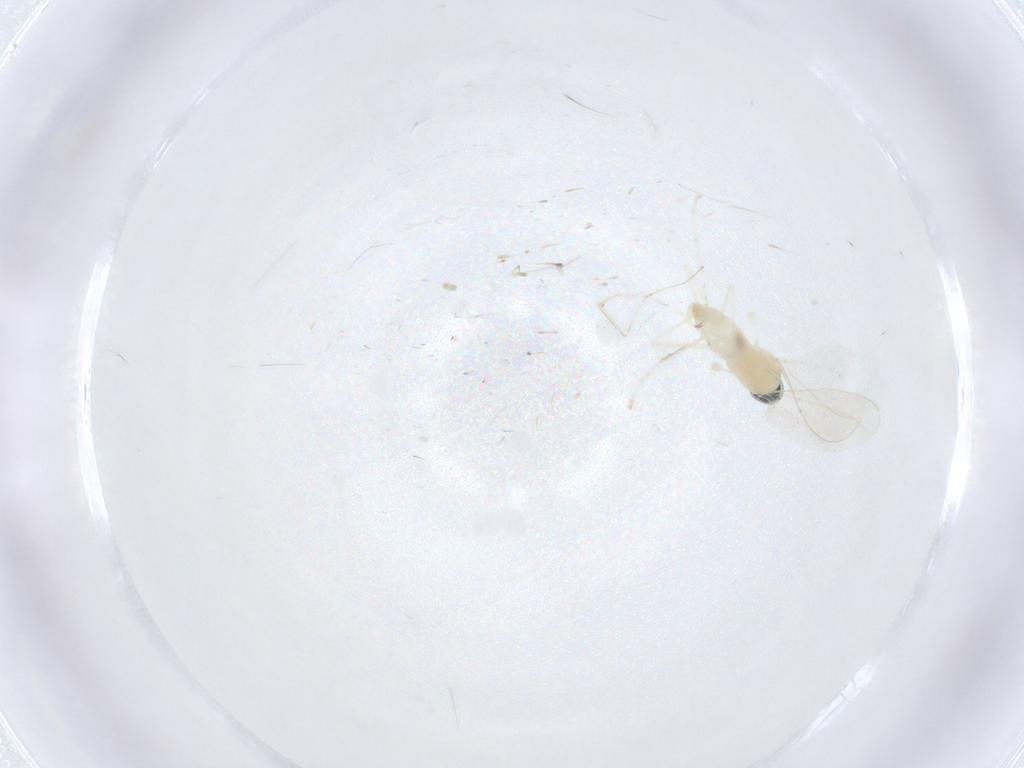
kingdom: Animalia
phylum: Arthropoda
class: Insecta
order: Diptera
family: Cecidomyiidae
